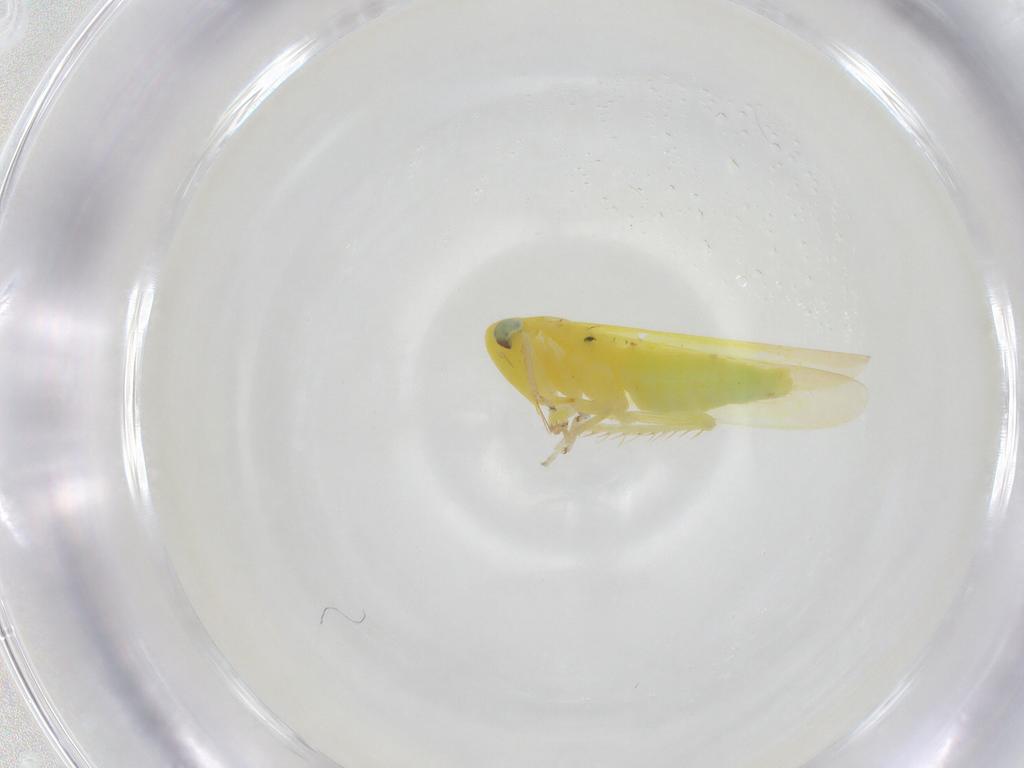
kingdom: Animalia
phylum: Arthropoda
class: Insecta
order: Hemiptera
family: Cicadellidae
